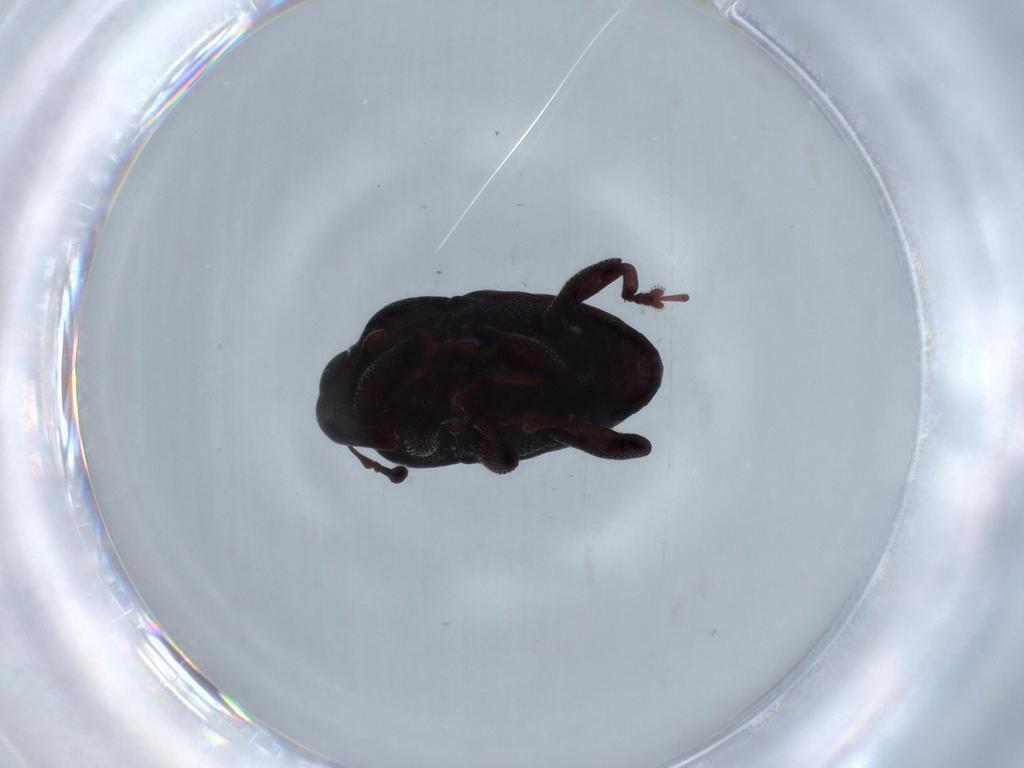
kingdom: Animalia
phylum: Arthropoda
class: Insecta
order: Coleoptera
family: Curculionidae
